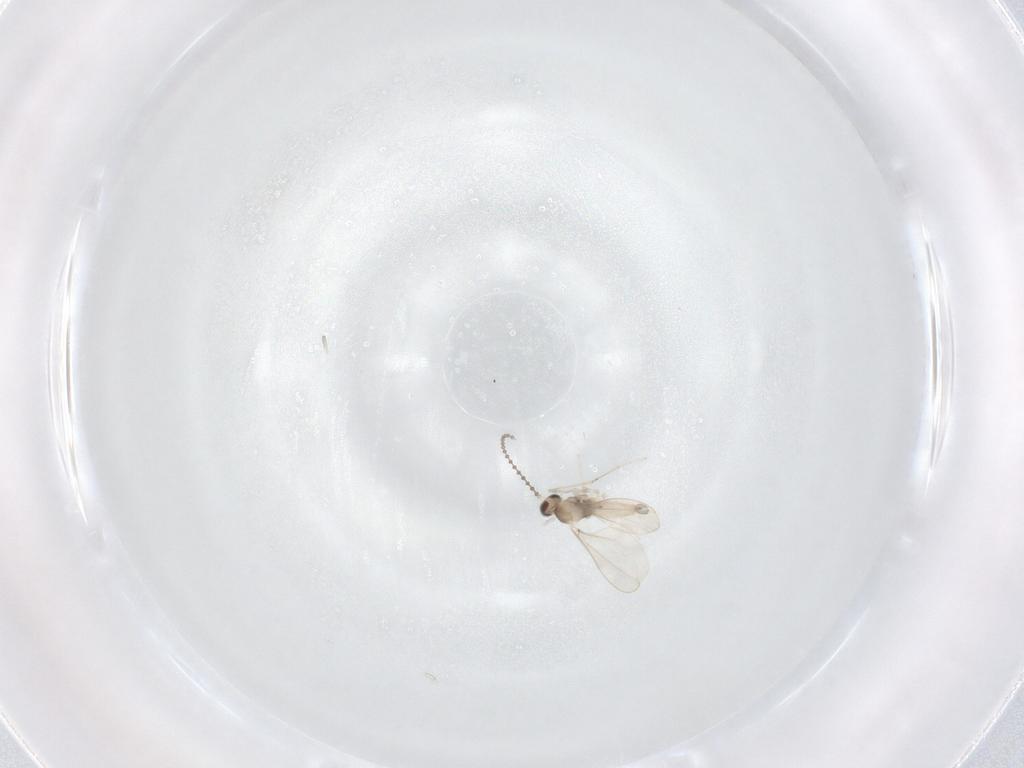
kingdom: Animalia
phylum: Arthropoda
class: Insecta
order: Diptera
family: Cecidomyiidae
